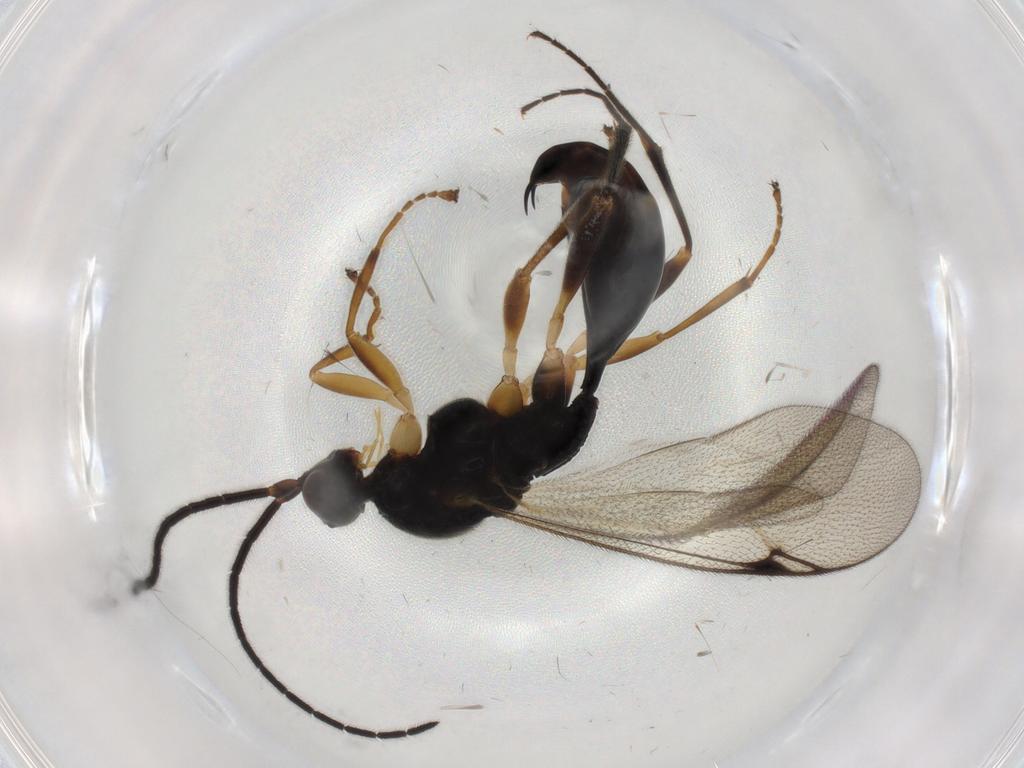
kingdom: Animalia
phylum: Arthropoda
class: Insecta
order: Hymenoptera
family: Proctotrupidae
